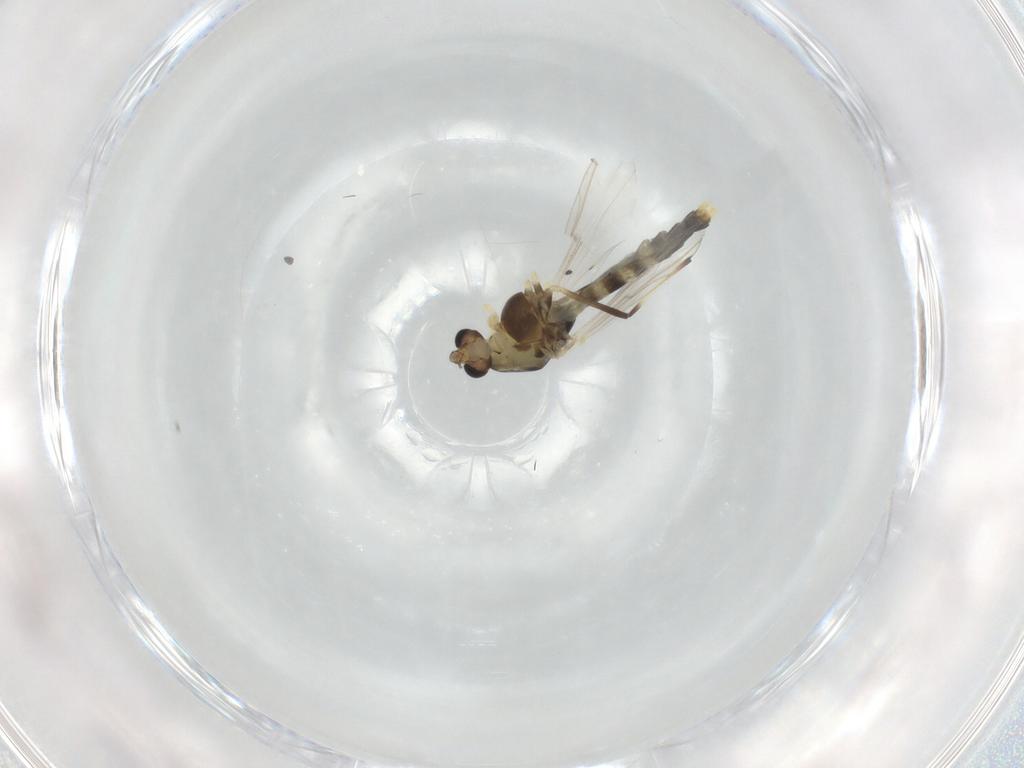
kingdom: Animalia
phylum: Arthropoda
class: Insecta
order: Diptera
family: Chironomidae
